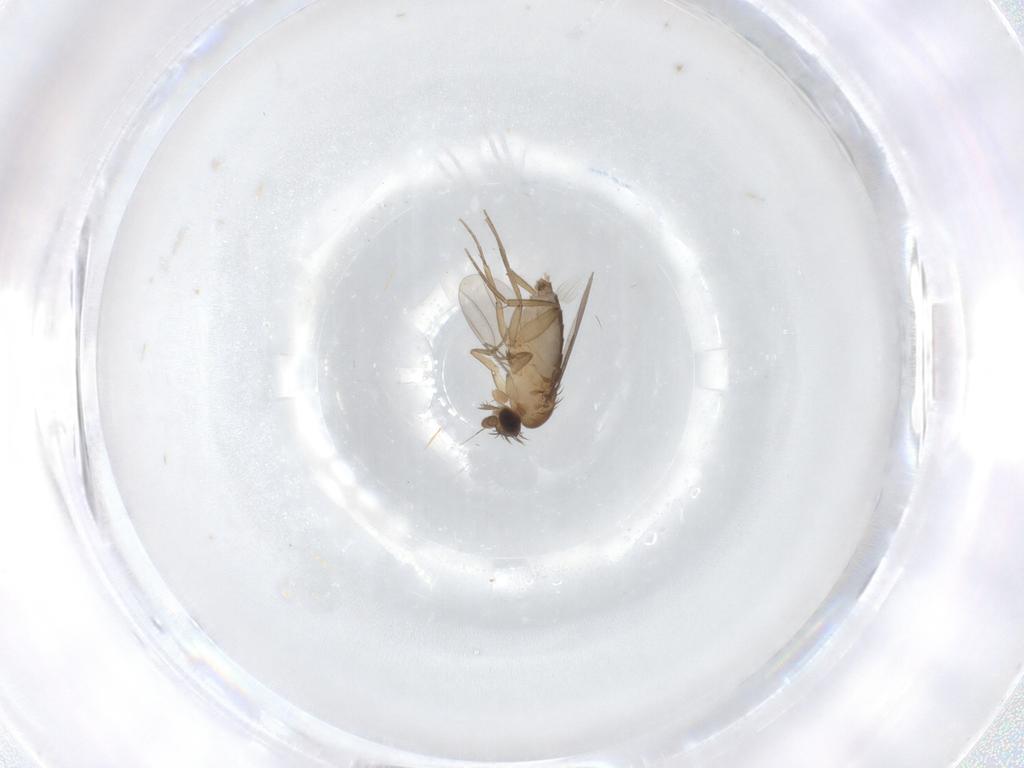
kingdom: Animalia
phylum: Arthropoda
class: Insecta
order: Diptera
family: Phoridae
